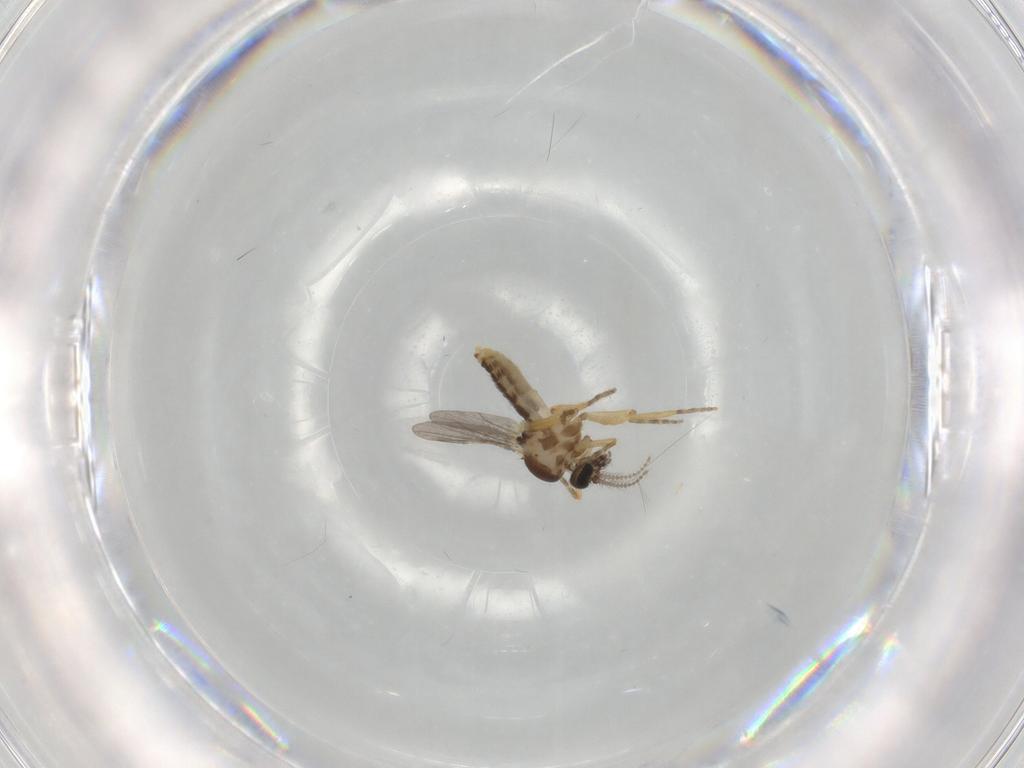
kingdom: Animalia
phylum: Arthropoda
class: Insecta
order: Diptera
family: Ceratopogonidae
